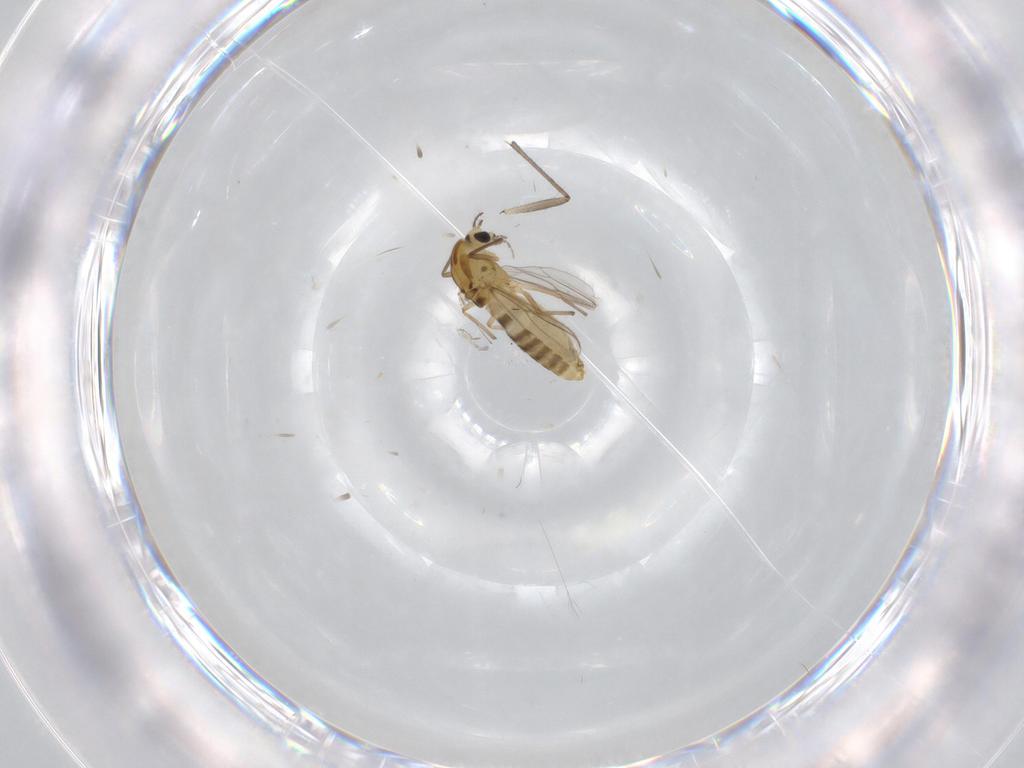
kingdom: Animalia
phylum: Arthropoda
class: Insecta
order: Diptera
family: Chironomidae
